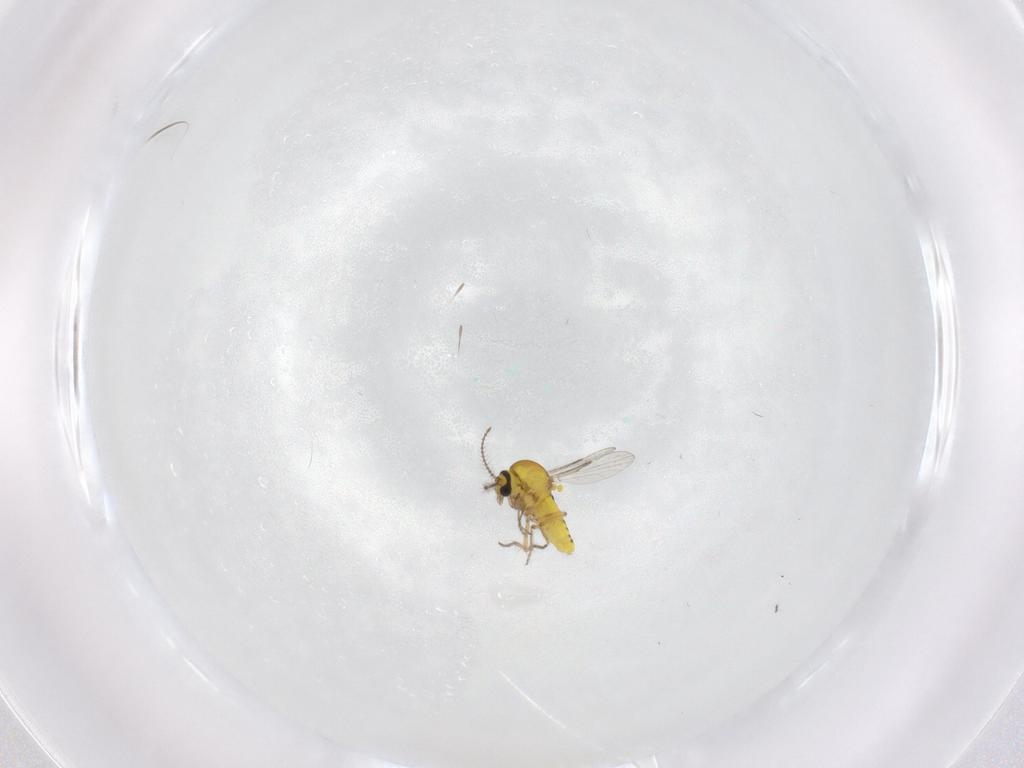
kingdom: Animalia
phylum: Arthropoda
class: Insecta
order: Diptera
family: Ceratopogonidae
